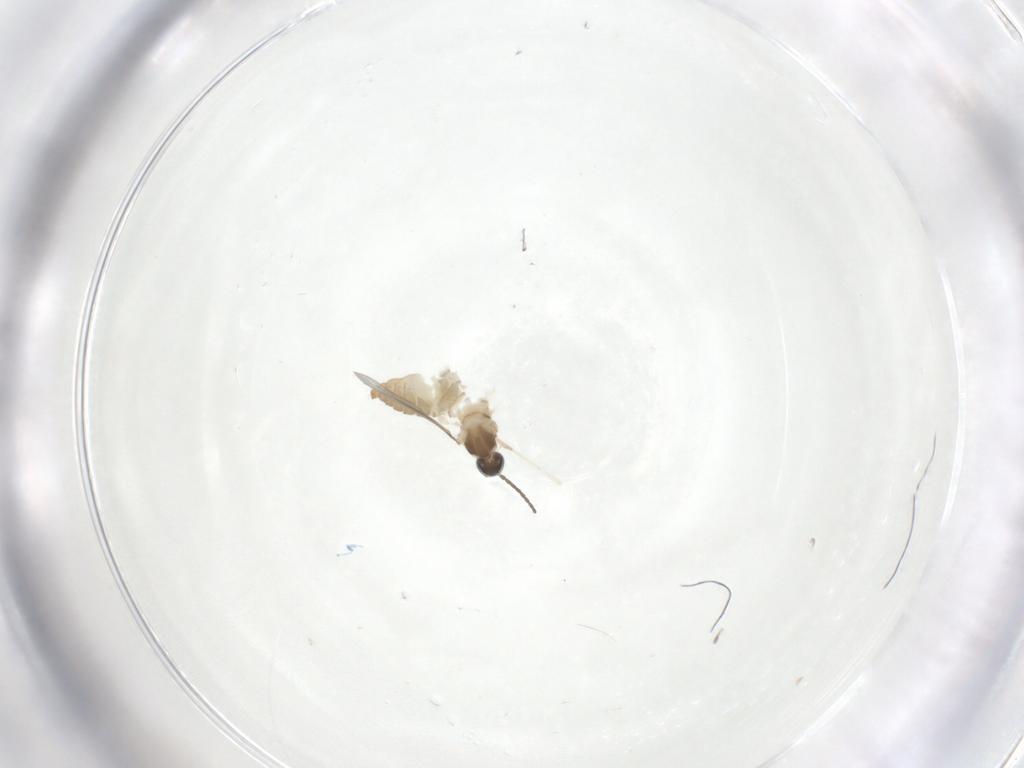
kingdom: Animalia
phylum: Arthropoda
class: Insecta
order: Diptera
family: Cecidomyiidae
